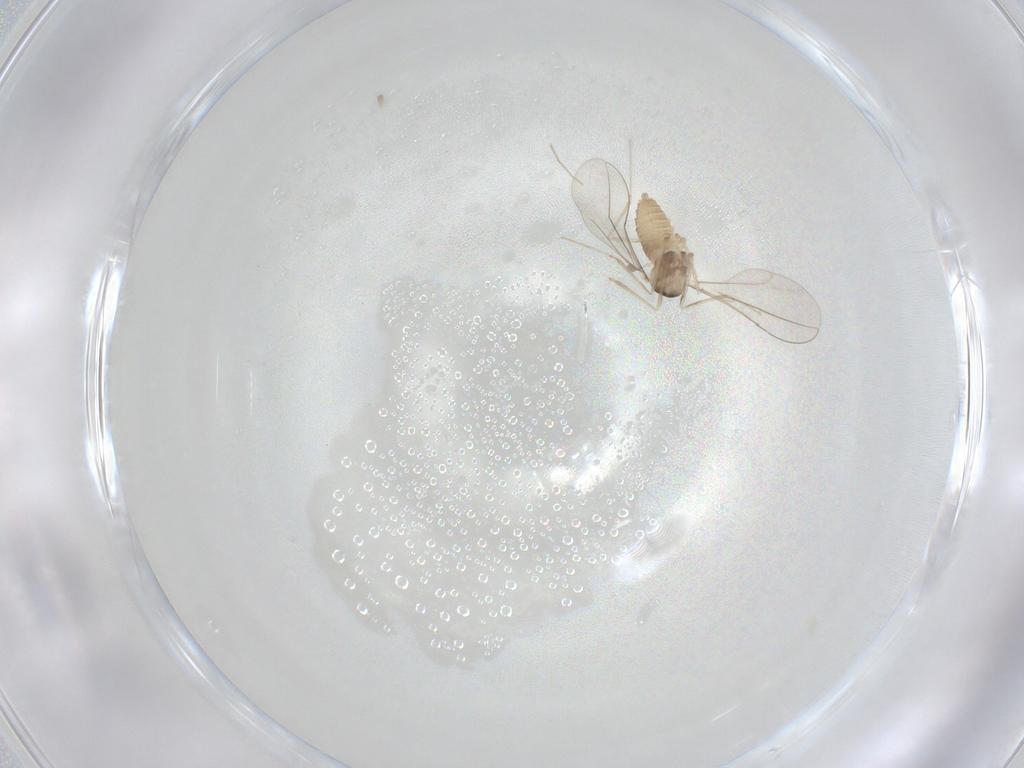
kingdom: Animalia
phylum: Arthropoda
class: Insecta
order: Diptera
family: Cecidomyiidae
